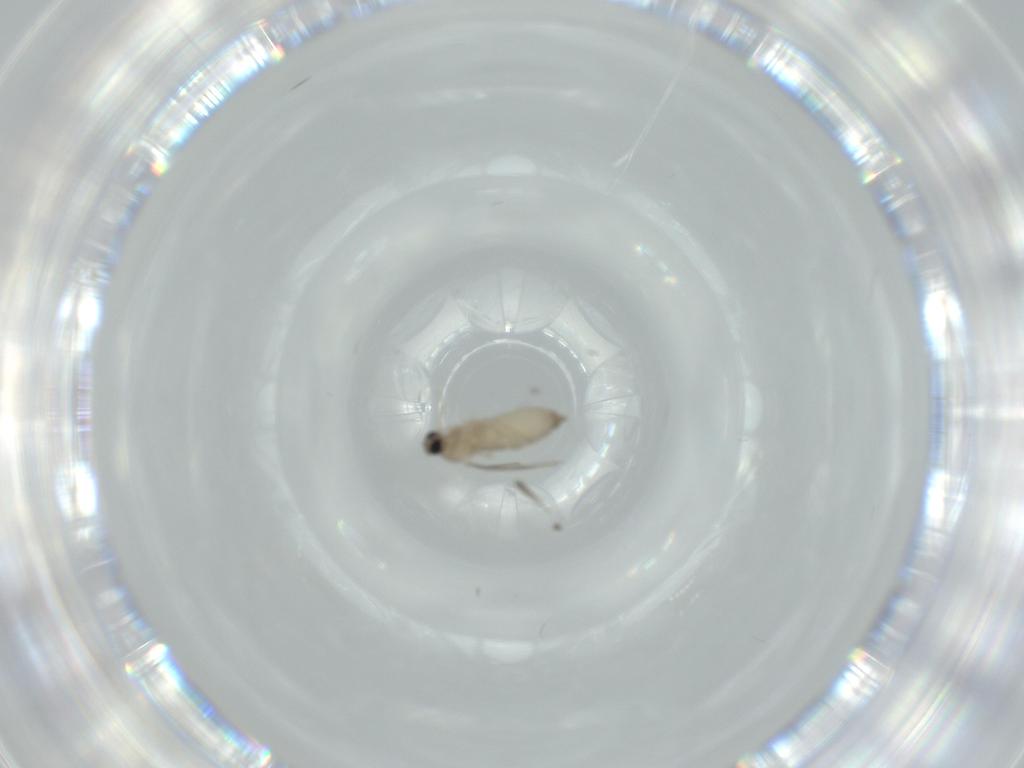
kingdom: Animalia
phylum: Arthropoda
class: Insecta
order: Diptera
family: Cecidomyiidae
